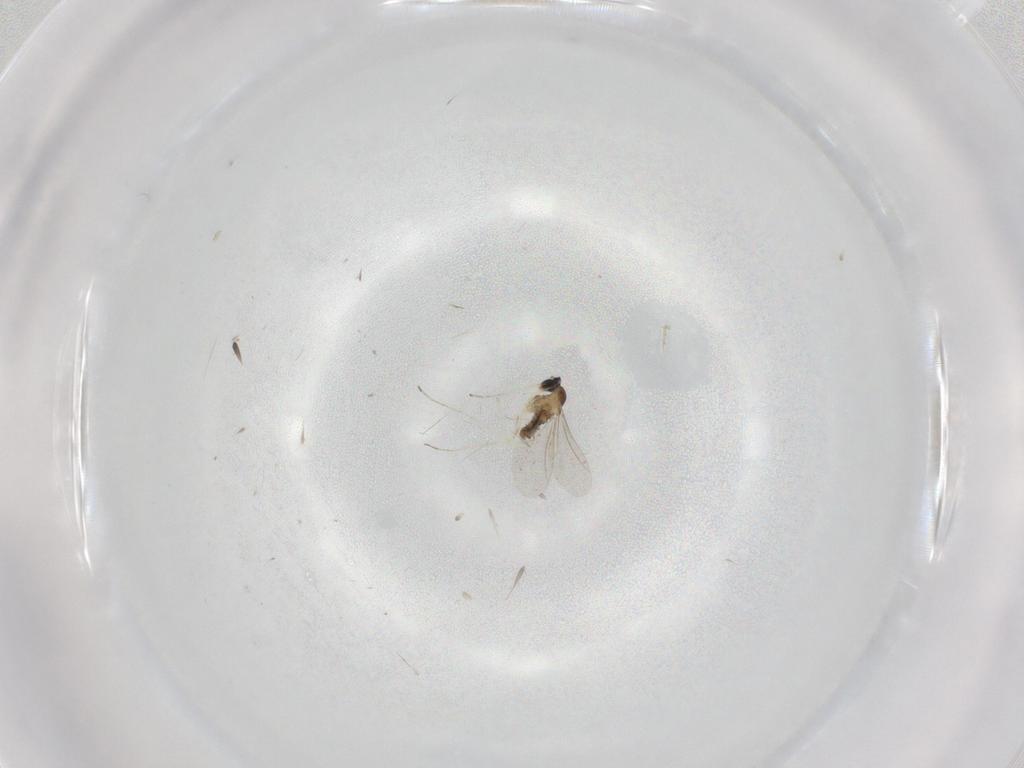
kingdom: Animalia
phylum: Arthropoda
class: Insecta
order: Diptera
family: Cecidomyiidae
